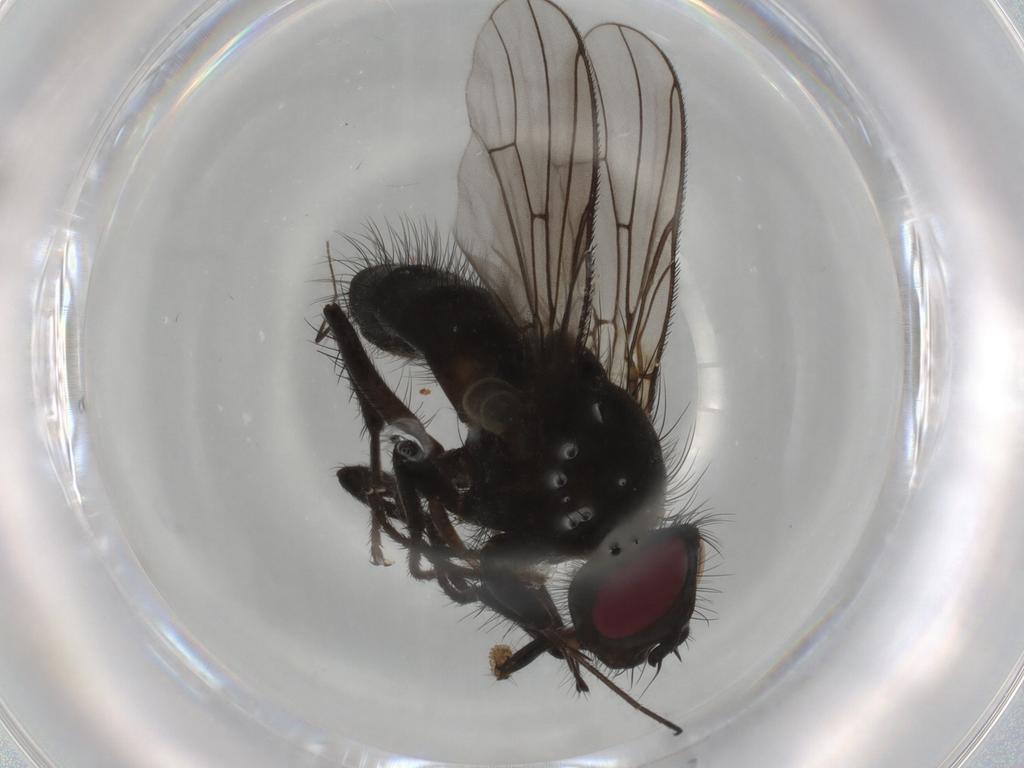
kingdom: Animalia
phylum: Arthropoda
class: Insecta
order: Diptera
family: Muscidae
